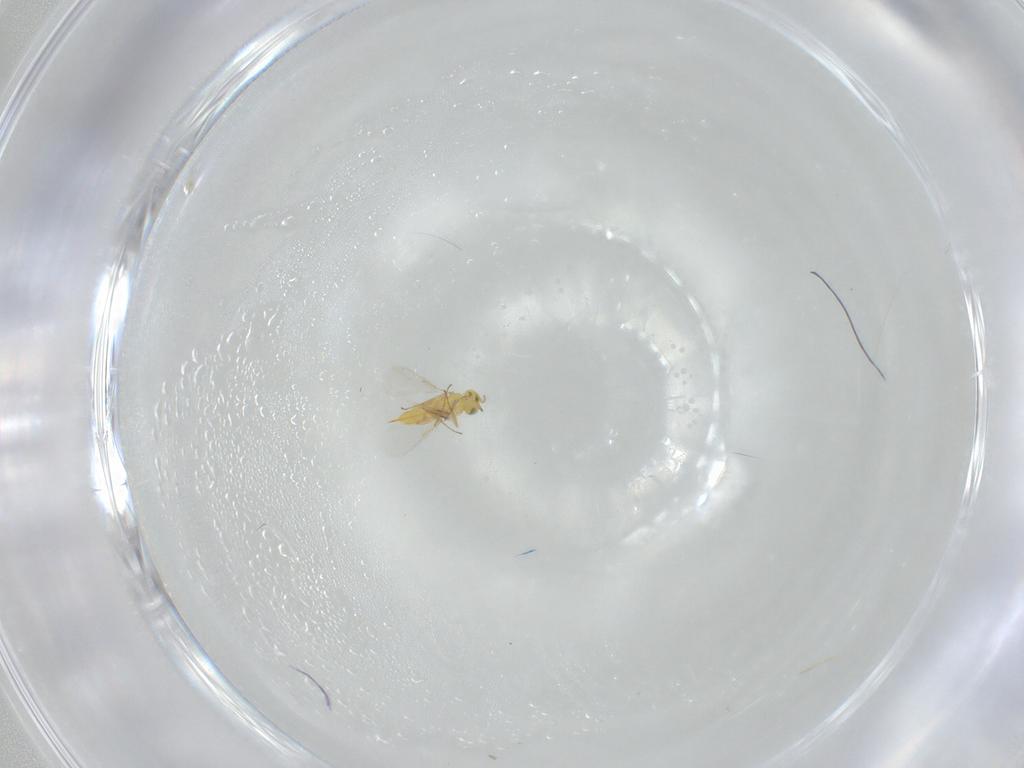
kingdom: Animalia
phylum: Arthropoda
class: Insecta
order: Hymenoptera
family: Aphelinidae
